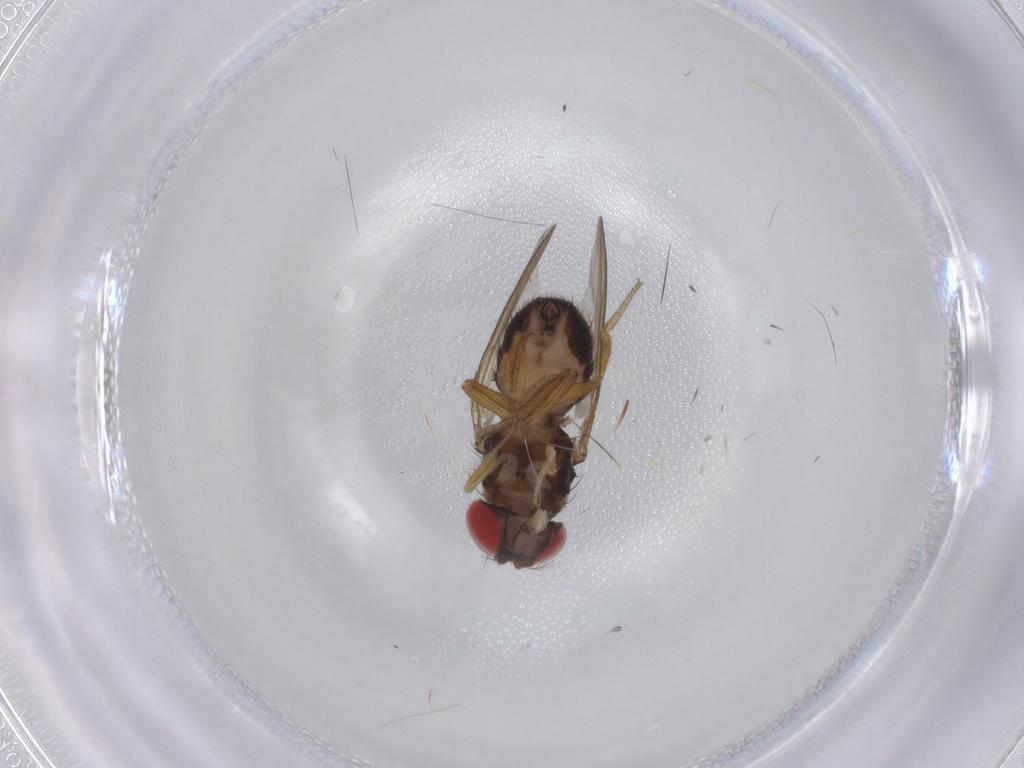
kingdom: Animalia
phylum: Arthropoda
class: Insecta
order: Diptera
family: Drosophilidae
